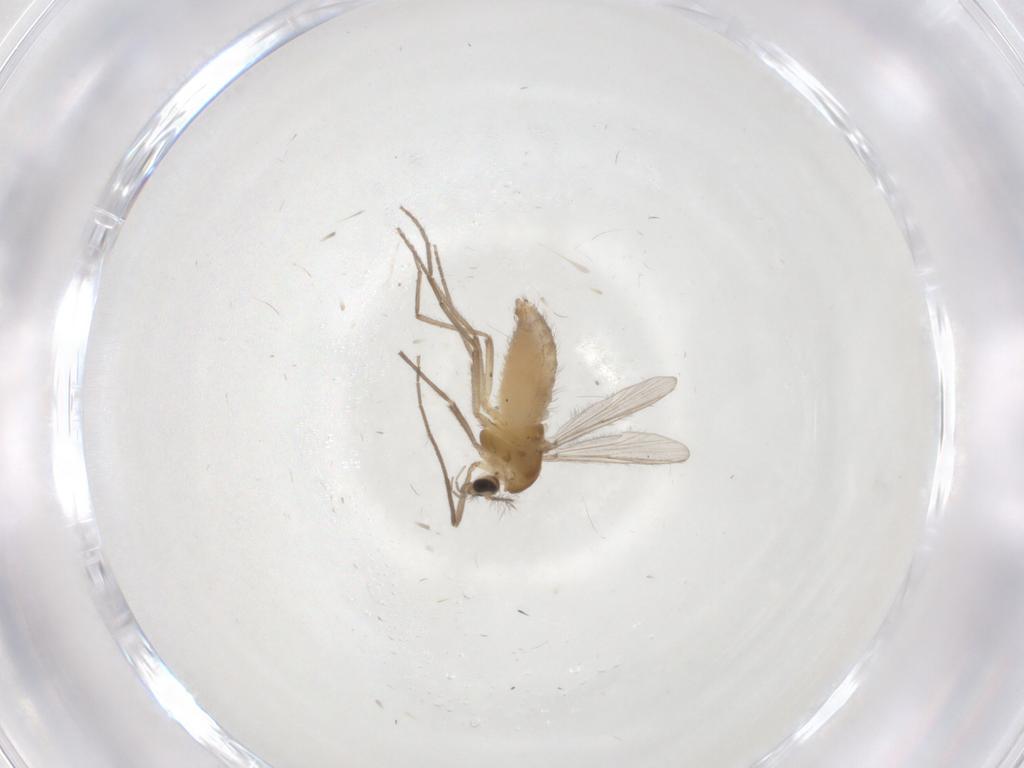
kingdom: Animalia
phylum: Arthropoda
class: Insecta
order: Diptera
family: Chironomidae
